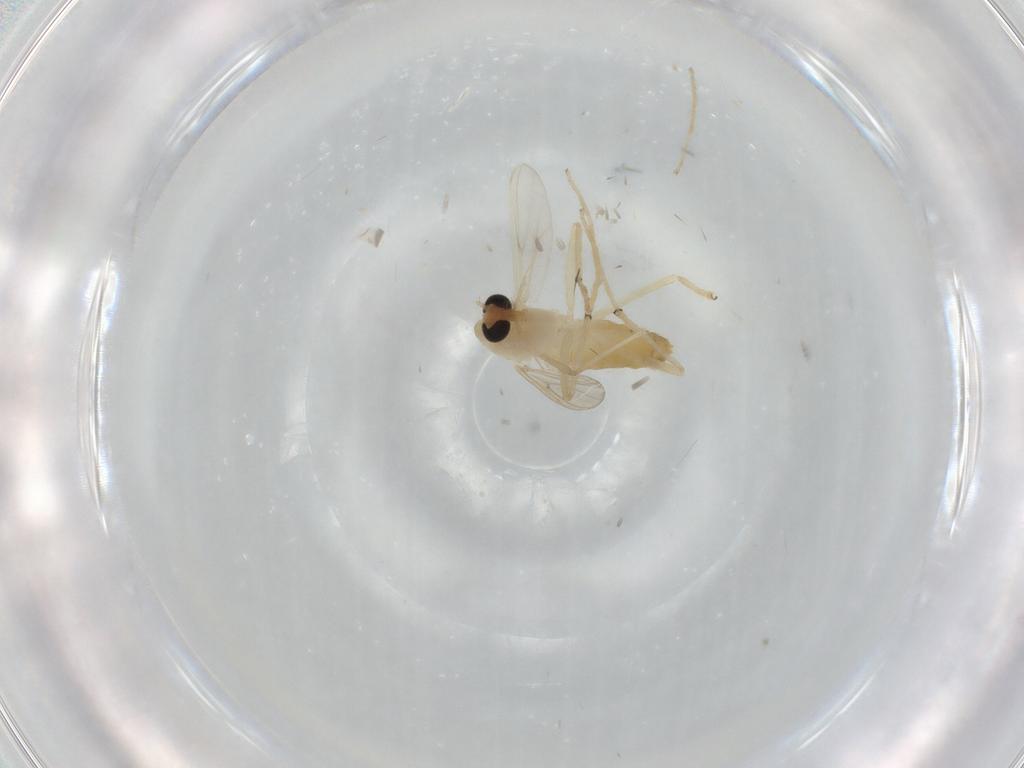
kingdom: Animalia
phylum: Arthropoda
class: Insecta
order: Diptera
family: Chironomidae
